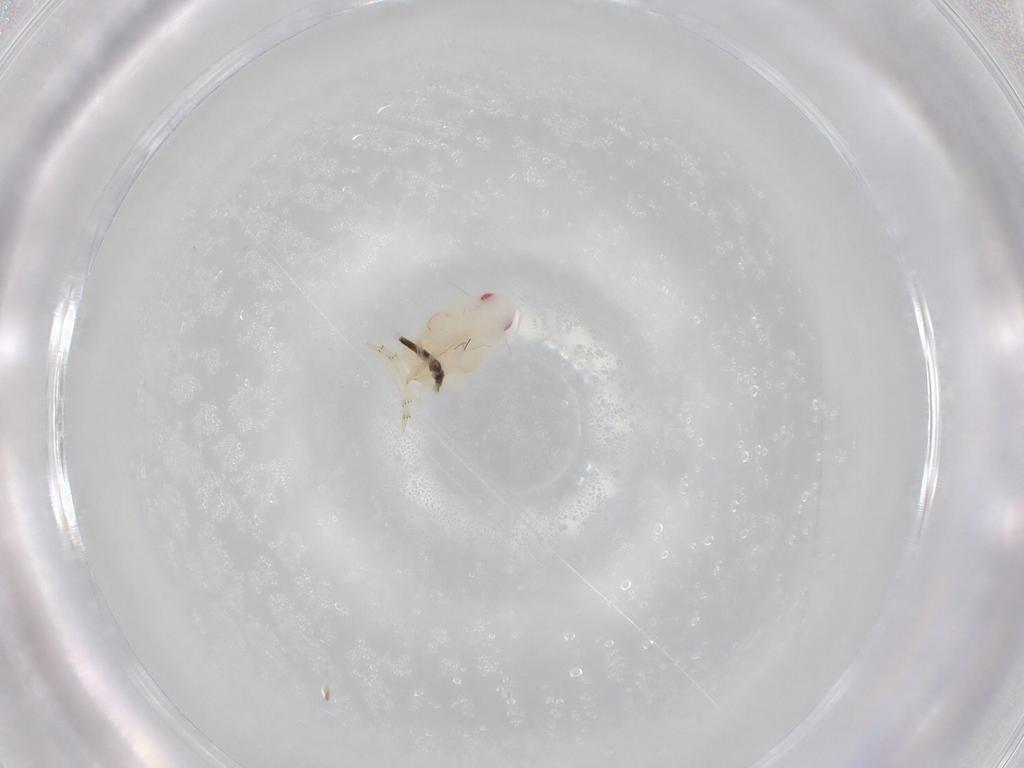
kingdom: Animalia
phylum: Arthropoda
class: Insecta
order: Hemiptera
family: Flatidae
